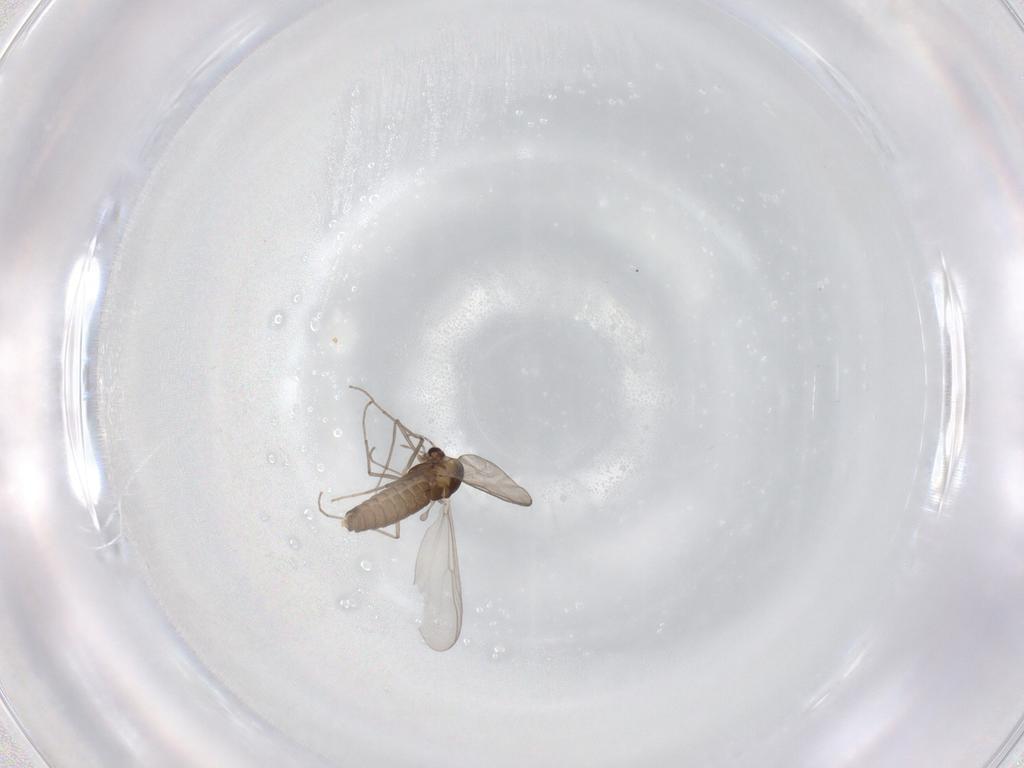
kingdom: Animalia
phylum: Arthropoda
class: Insecta
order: Diptera
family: Chironomidae
